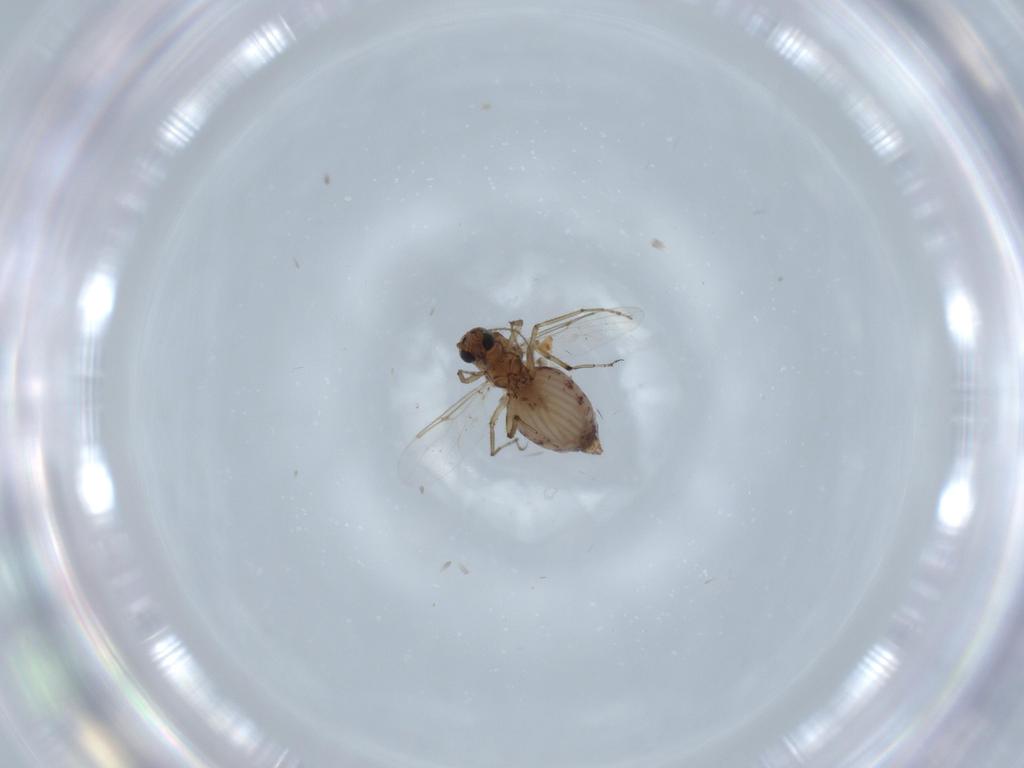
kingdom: Animalia
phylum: Arthropoda
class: Insecta
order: Diptera
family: Ceratopogonidae
